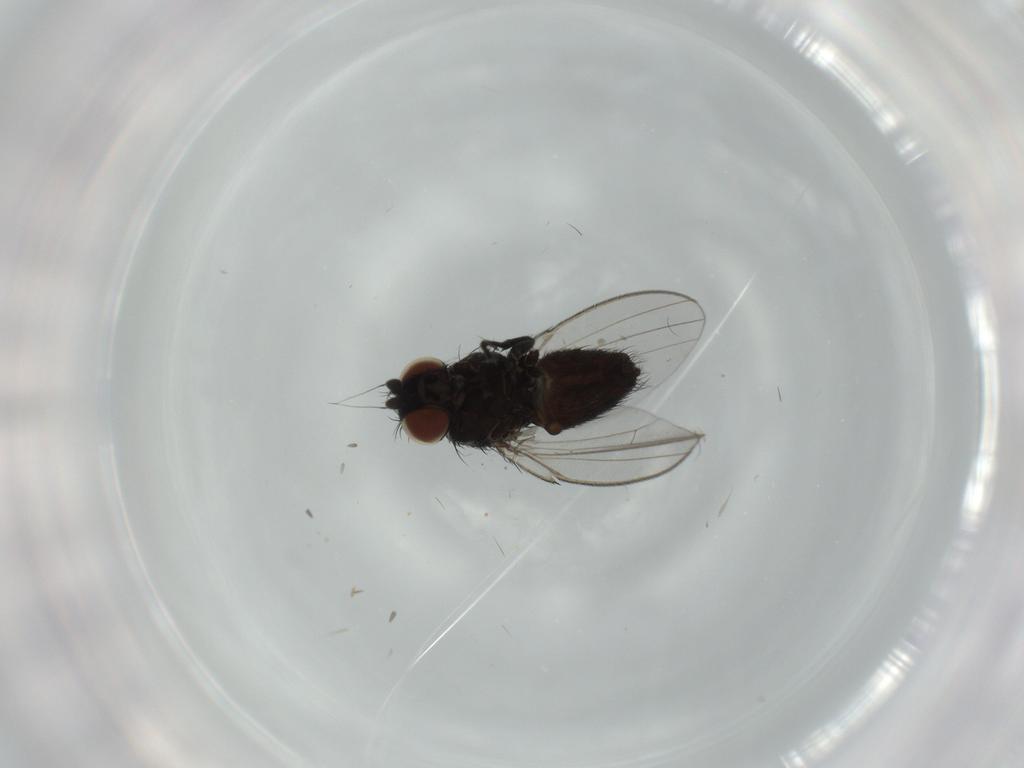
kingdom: Animalia
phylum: Arthropoda
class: Insecta
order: Diptera
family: Milichiidae
